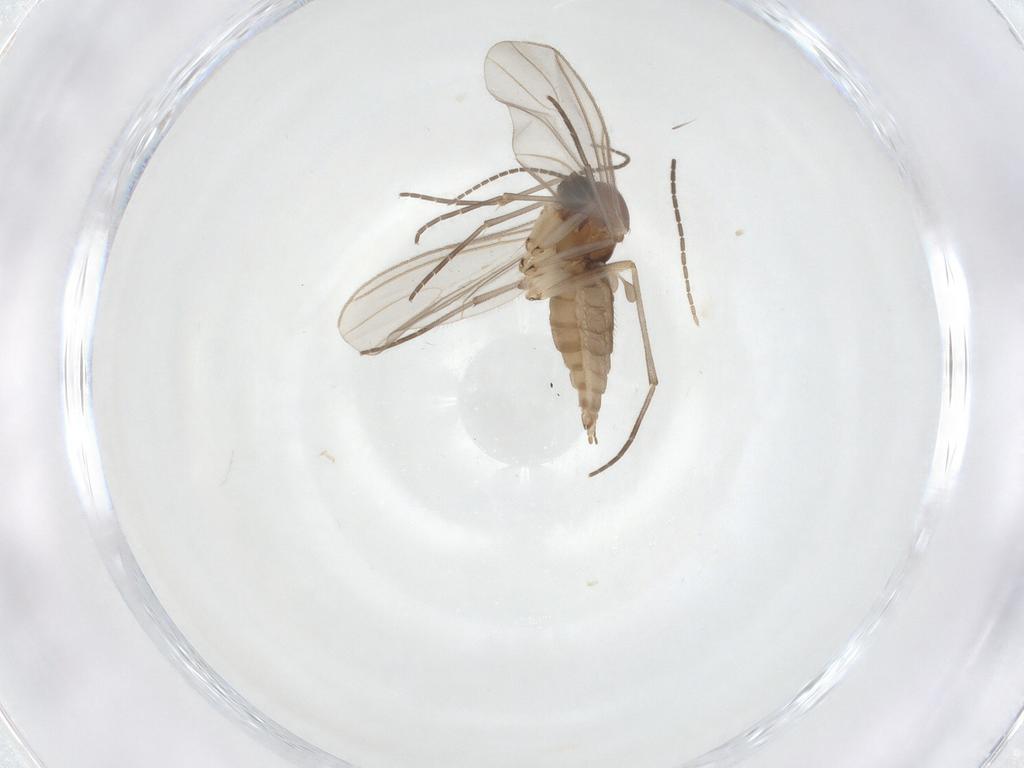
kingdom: Animalia
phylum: Arthropoda
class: Insecta
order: Diptera
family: Sciaridae
